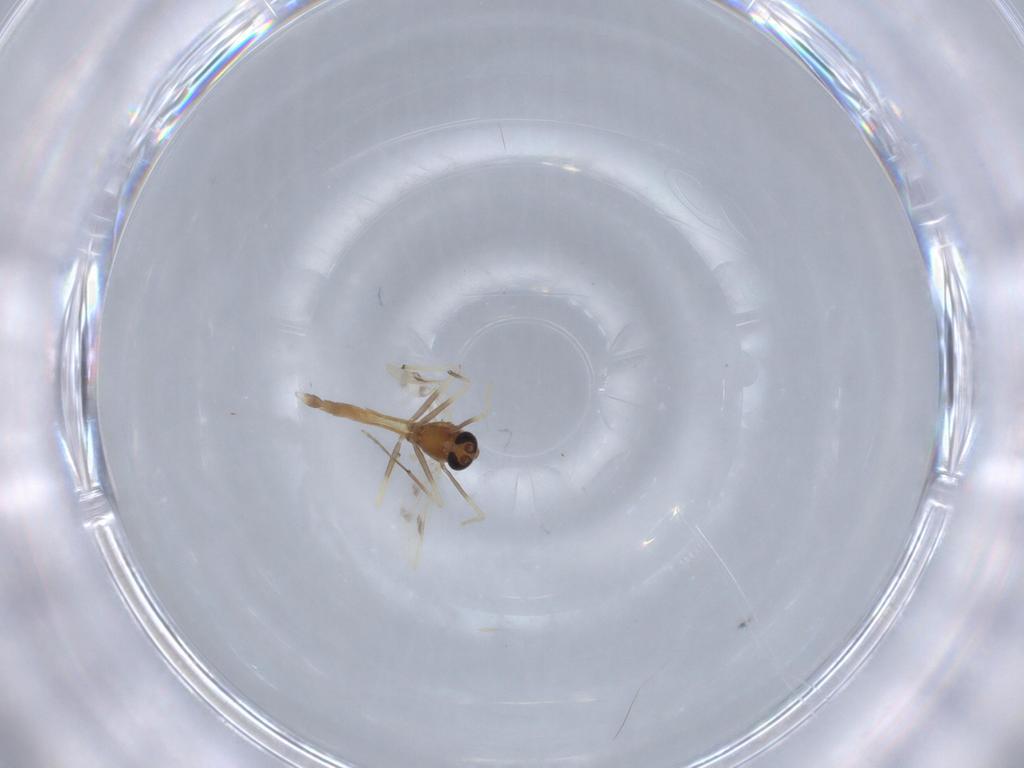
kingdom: Animalia
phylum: Arthropoda
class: Insecta
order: Diptera
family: Chironomidae
